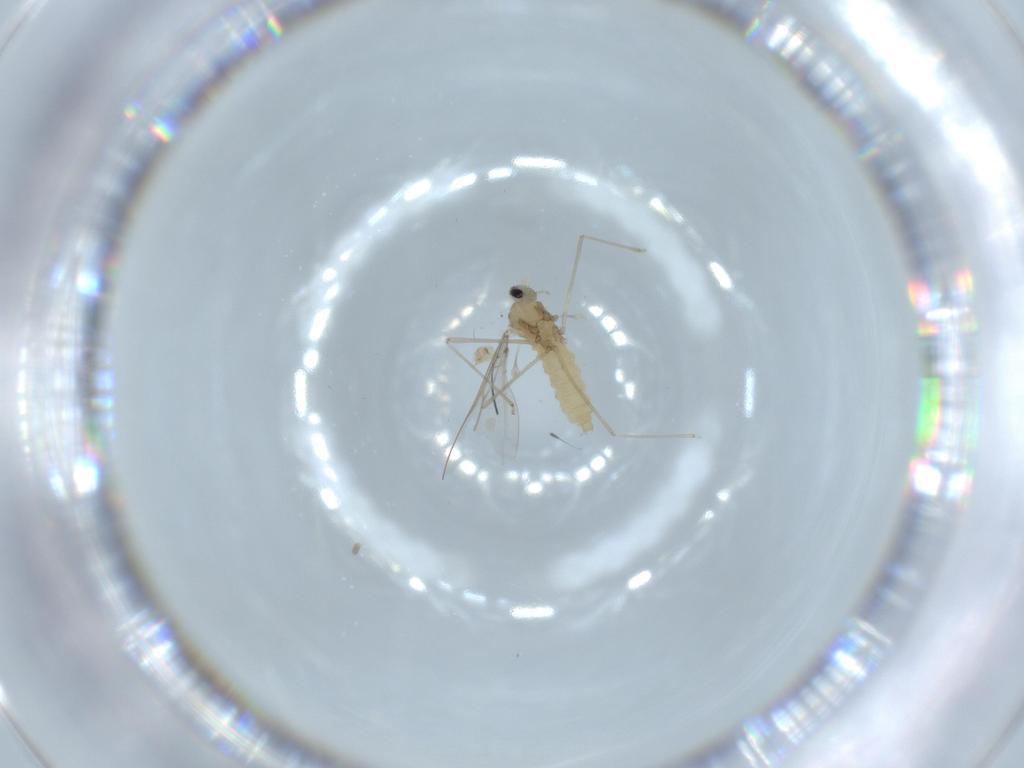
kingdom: Animalia
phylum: Arthropoda
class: Insecta
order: Diptera
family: Cecidomyiidae
